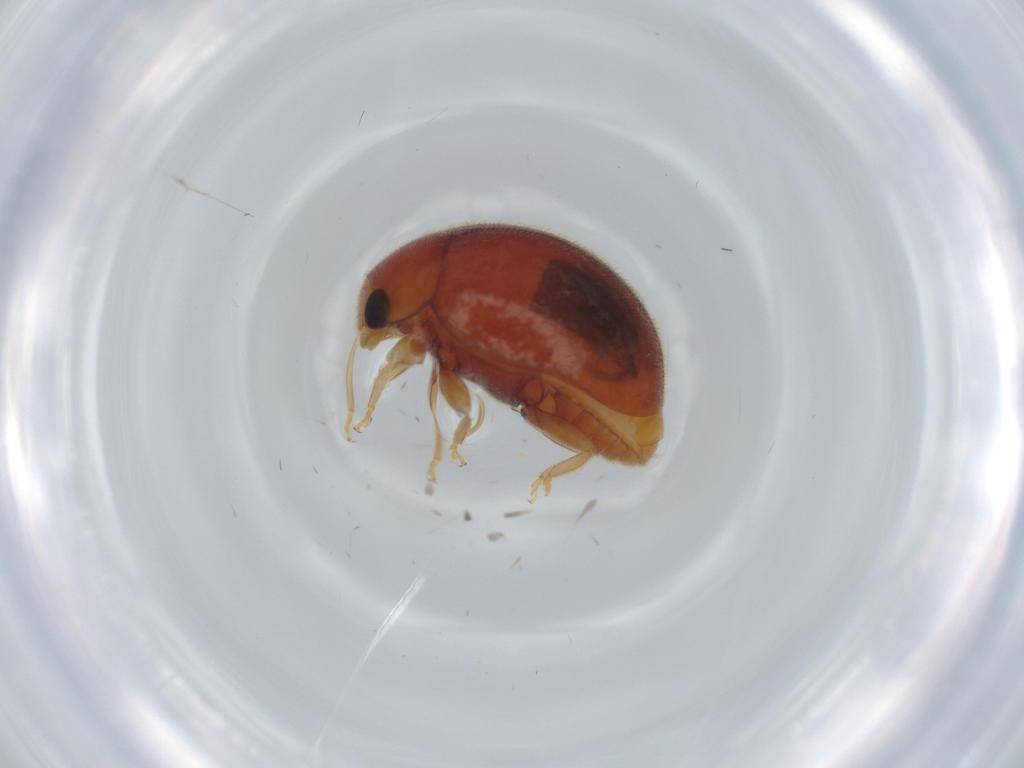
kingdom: Animalia
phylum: Arthropoda
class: Insecta
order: Coleoptera
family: Coccinellidae
